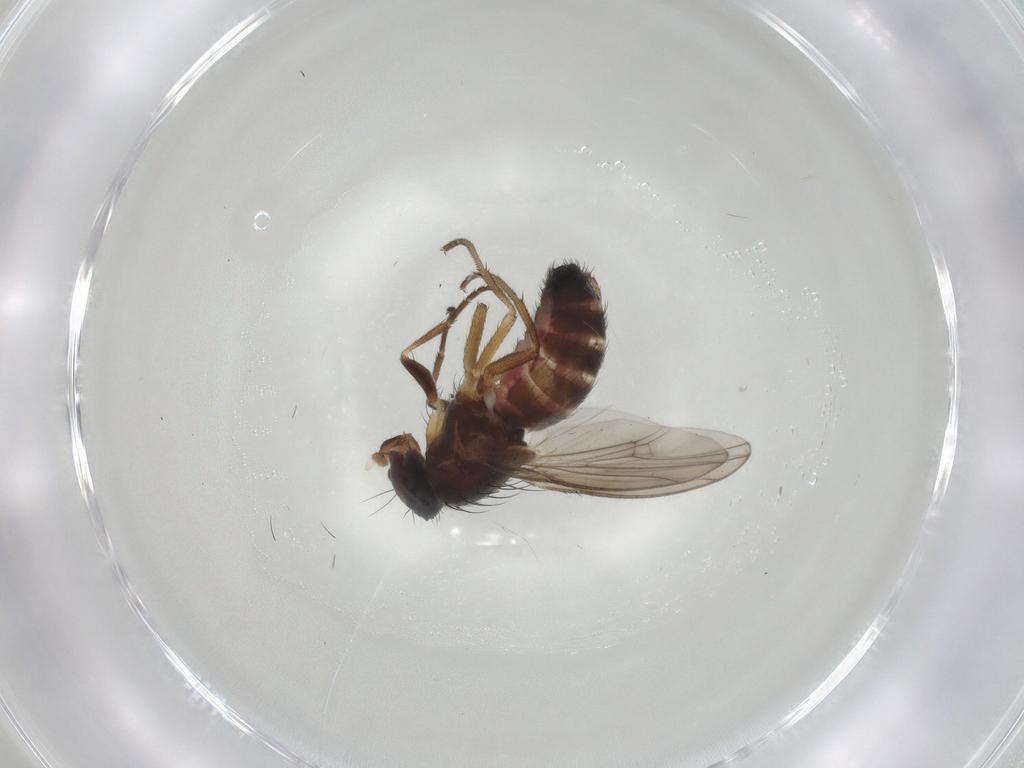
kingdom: Animalia
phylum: Arthropoda
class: Insecta
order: Diptera
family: Heleomyzidae
